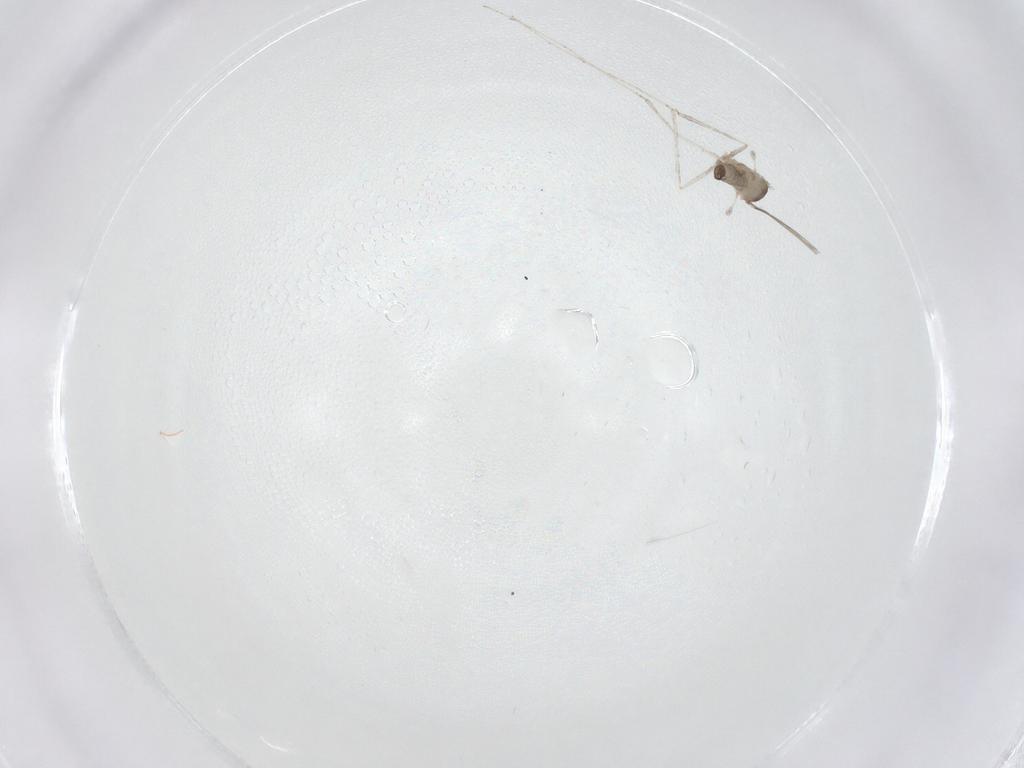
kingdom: Animalia
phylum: Arthropoda
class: Insecta
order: Diptera
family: Cecidomyiidae
